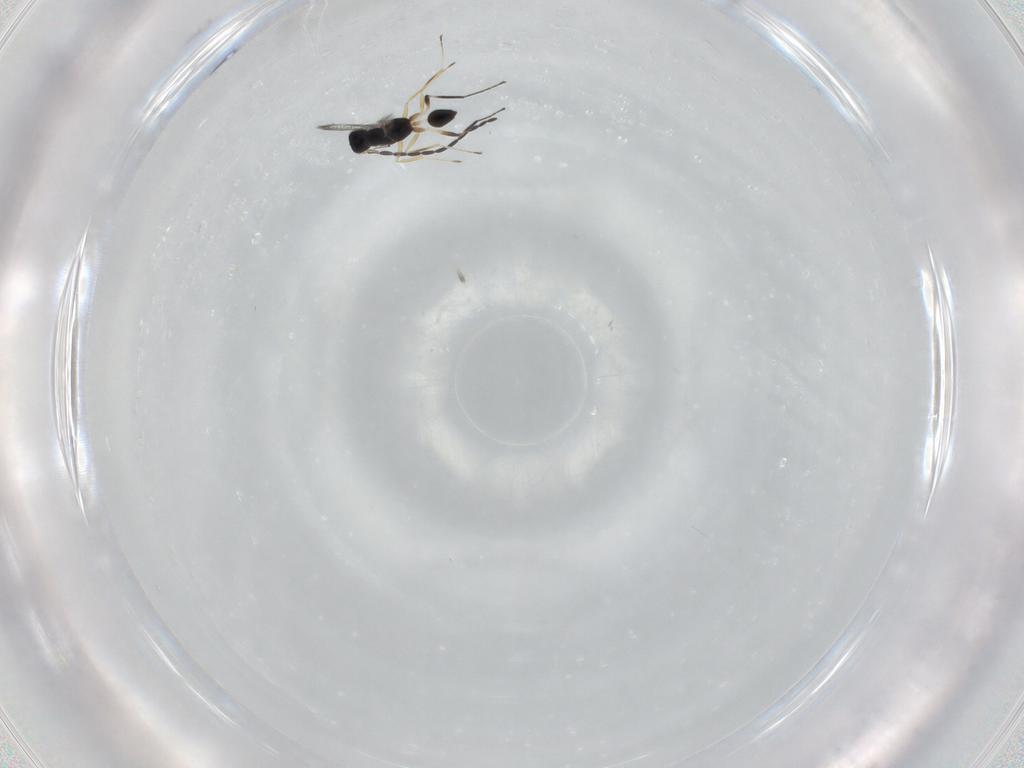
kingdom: Animalia
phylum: Arthropoda
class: Insecta
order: Hymenoptera
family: Mymaridae
